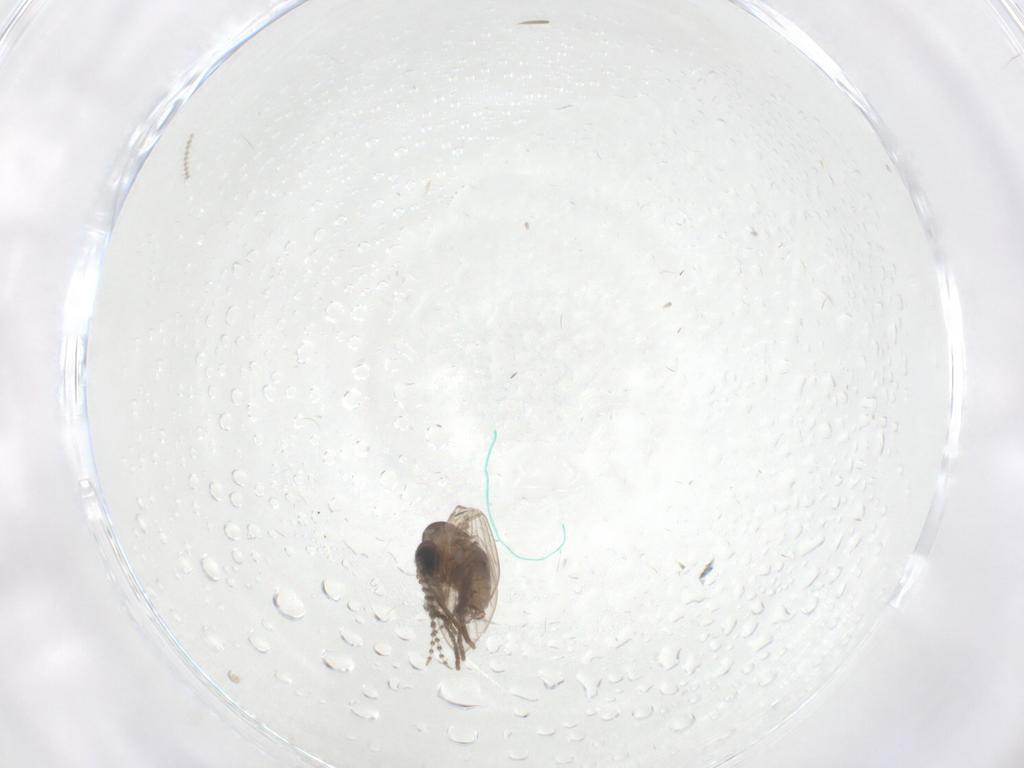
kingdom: Animalia
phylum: Arthropoda
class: Insecta
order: Diptera
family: Psychodidae
